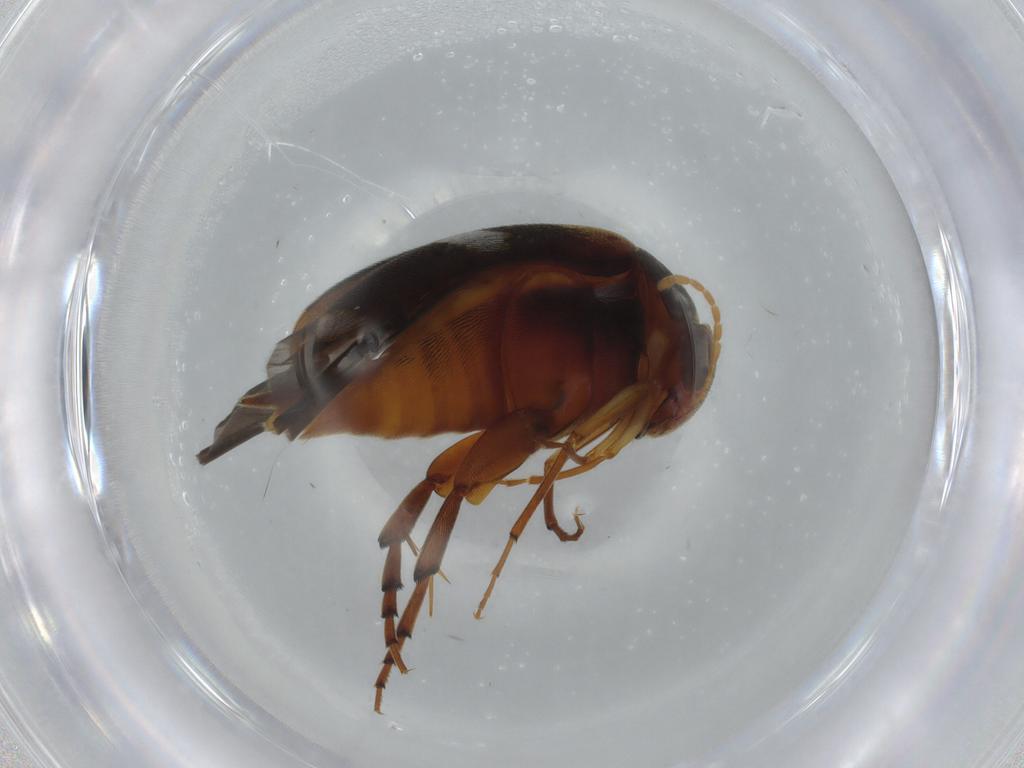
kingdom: Animalia
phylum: Arthropoda
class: Insecta
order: Coleoptera
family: Mordellidae
